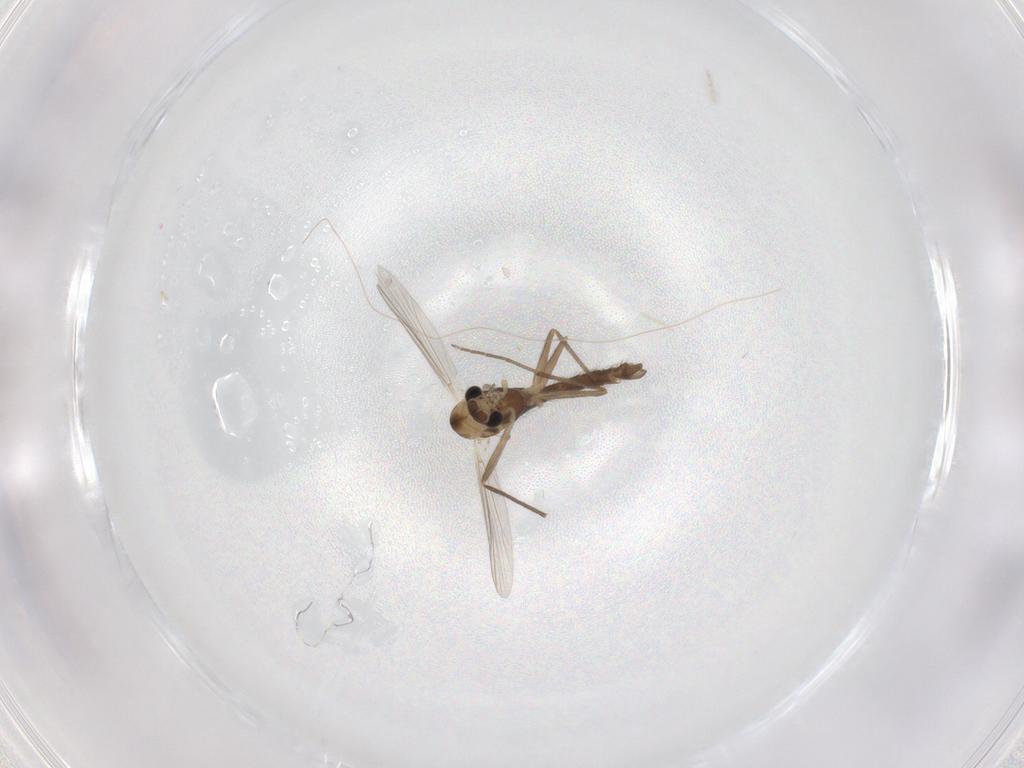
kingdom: Animalia
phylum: Arthropoda
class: Insecta
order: Diptera
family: Chironomidae
